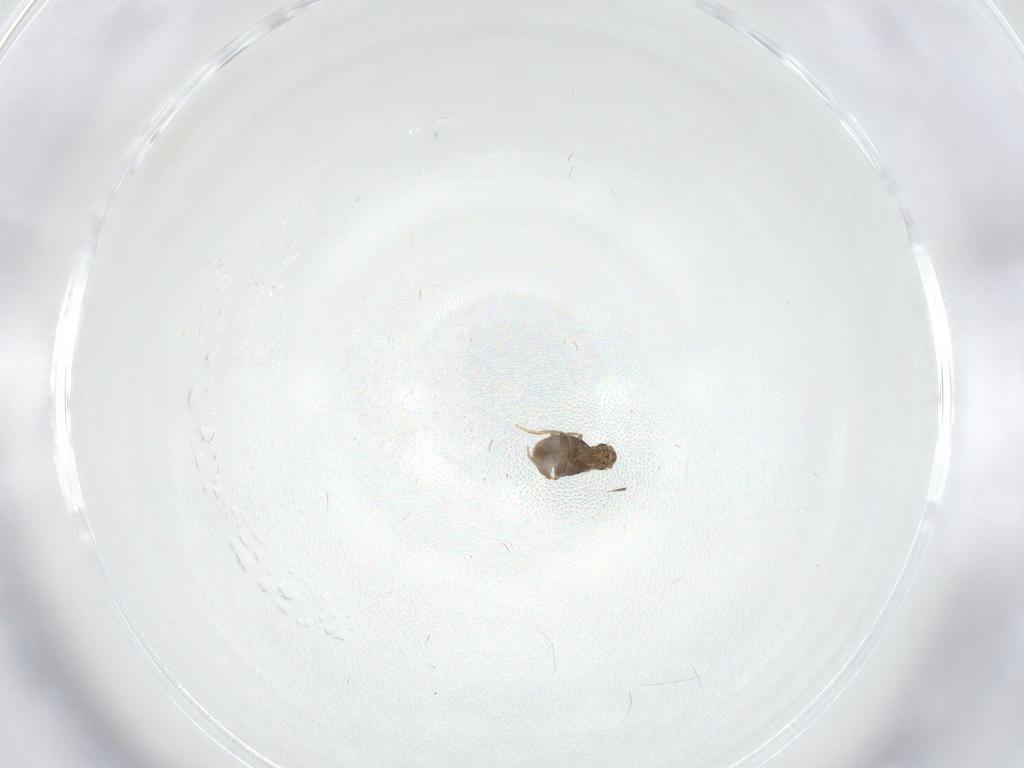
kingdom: Animalia
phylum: Arthropoda
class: Insecta
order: Diptera
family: Phoridae
